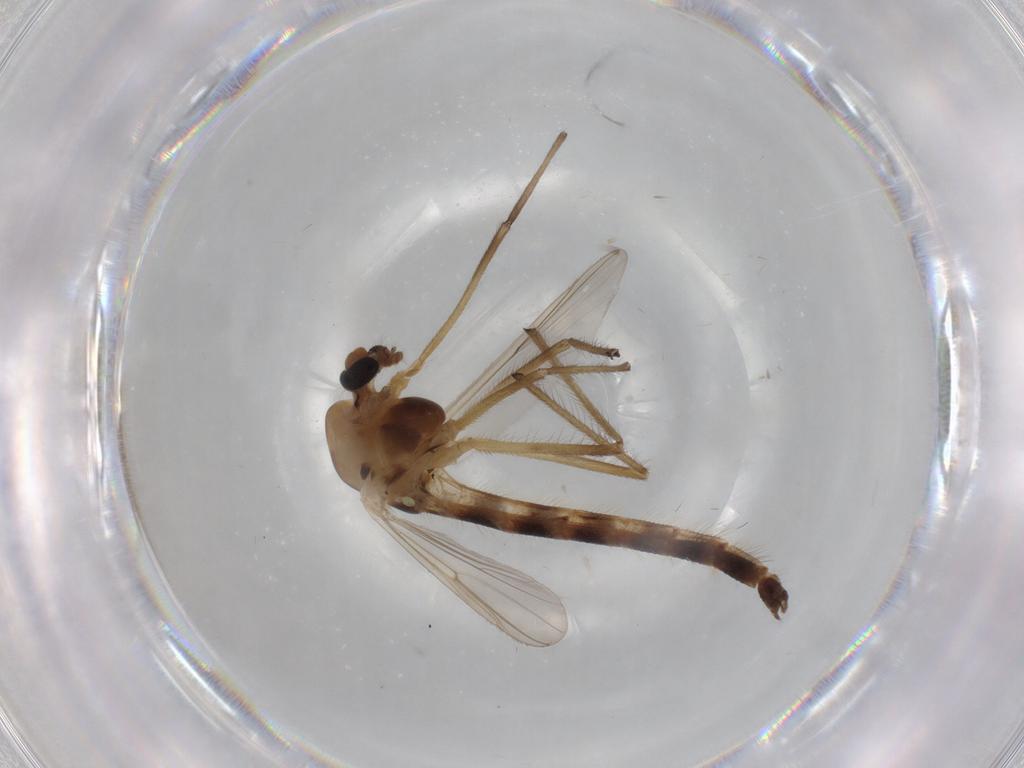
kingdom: Animalia
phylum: Arthropoda
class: Insecta
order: Diptera
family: Chironomidae
